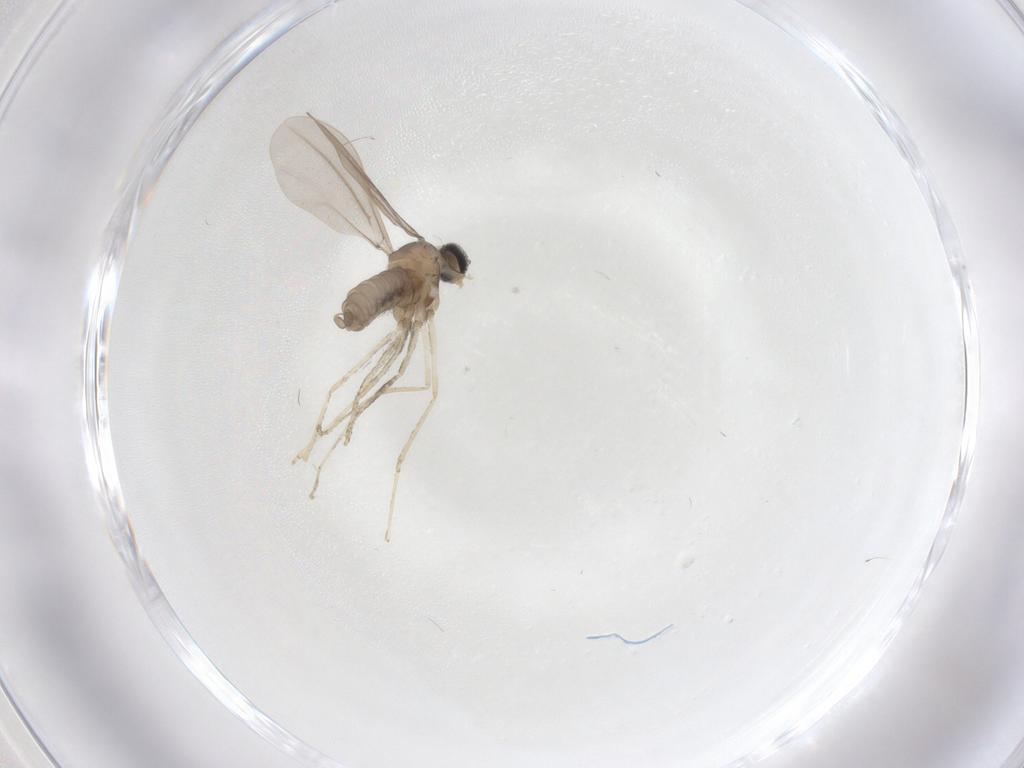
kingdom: Animalia
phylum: Arthropoda
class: Insecta
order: Diptera
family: Cecidomyiidae
